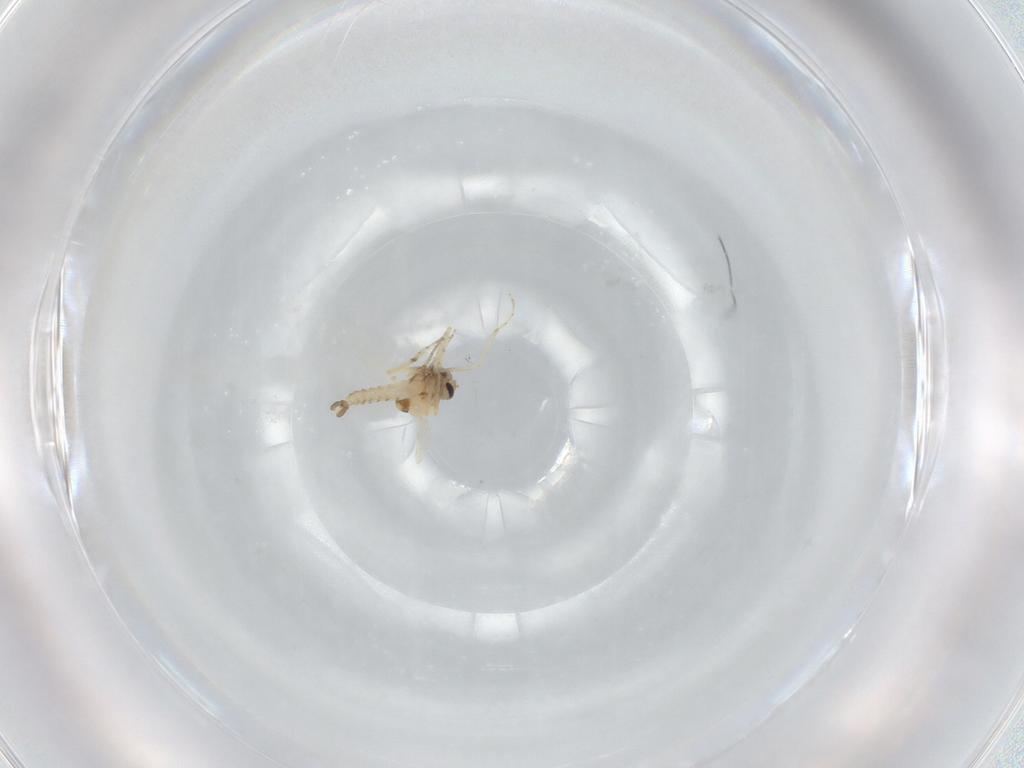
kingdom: Animalia
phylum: Arthropoda
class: Insecta
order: Diptera
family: Ceratopogonidae
